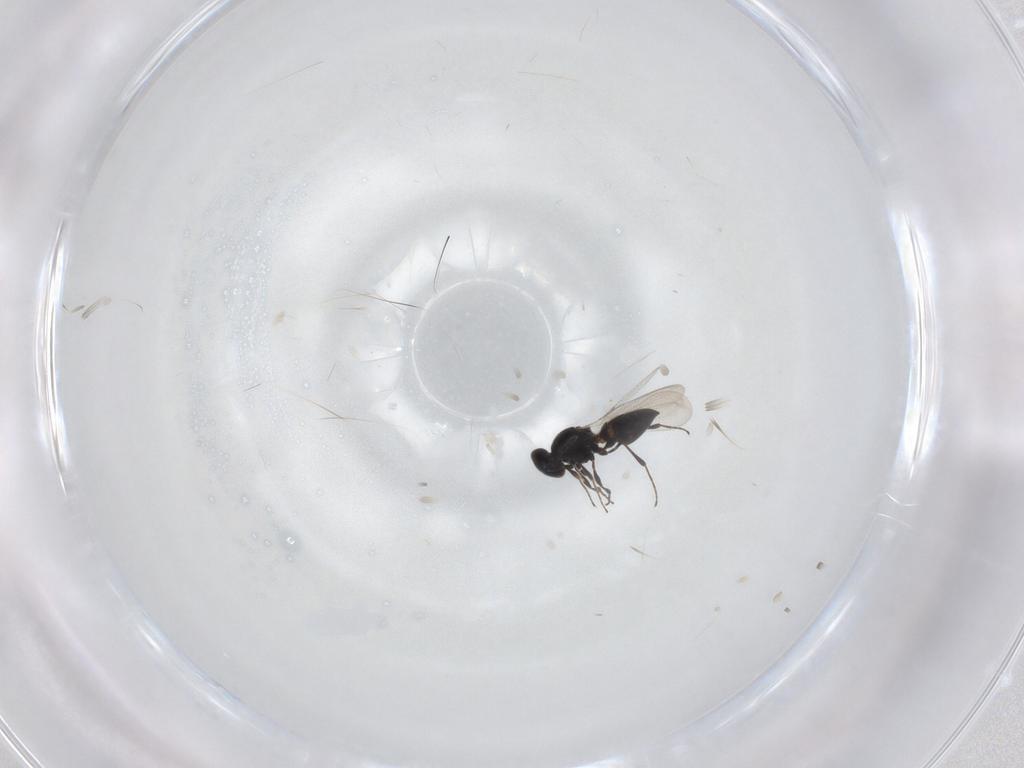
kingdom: Animalia
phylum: Arthropoda
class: Insecta
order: Hymenoptera
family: Platygastridae
